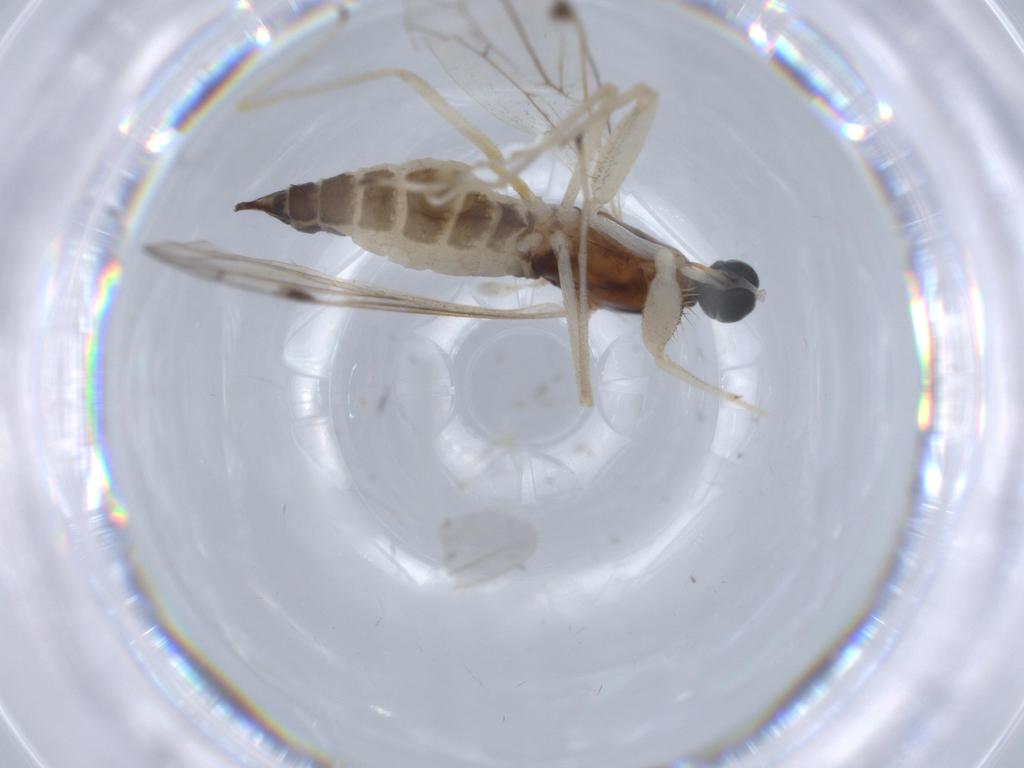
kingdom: Animalia
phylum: Arthropoda
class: Insecta
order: Diptera
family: Empididae
